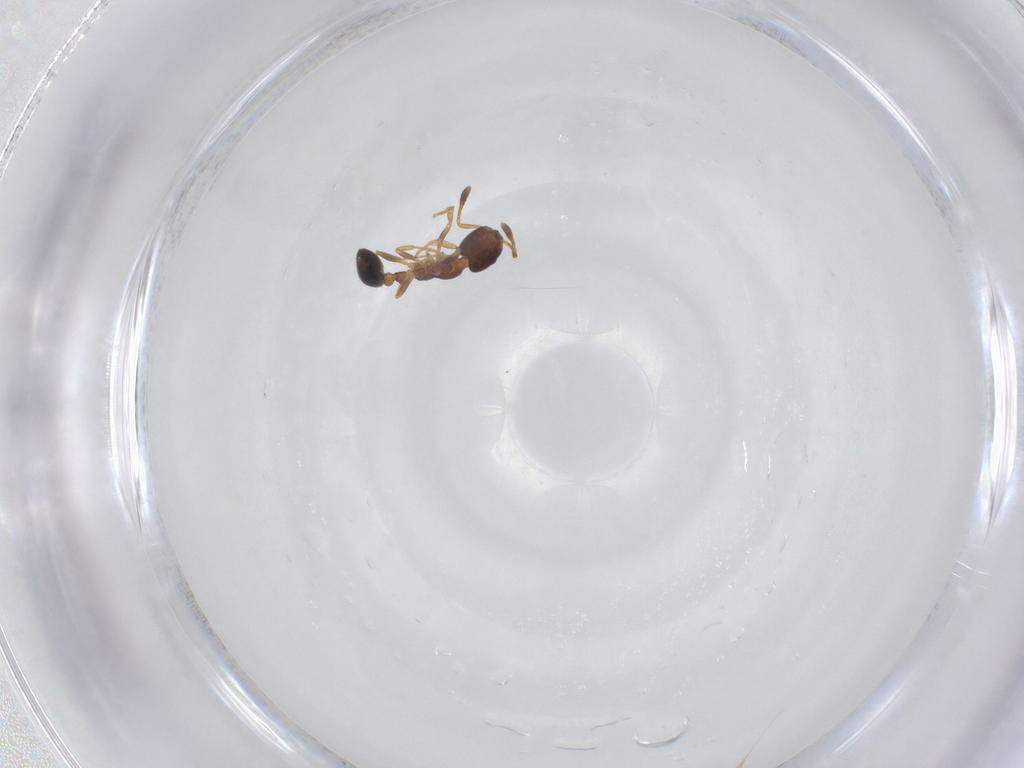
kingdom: Animalia
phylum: Arthropoda
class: Insecta
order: Hymenoptera
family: Formicidae
